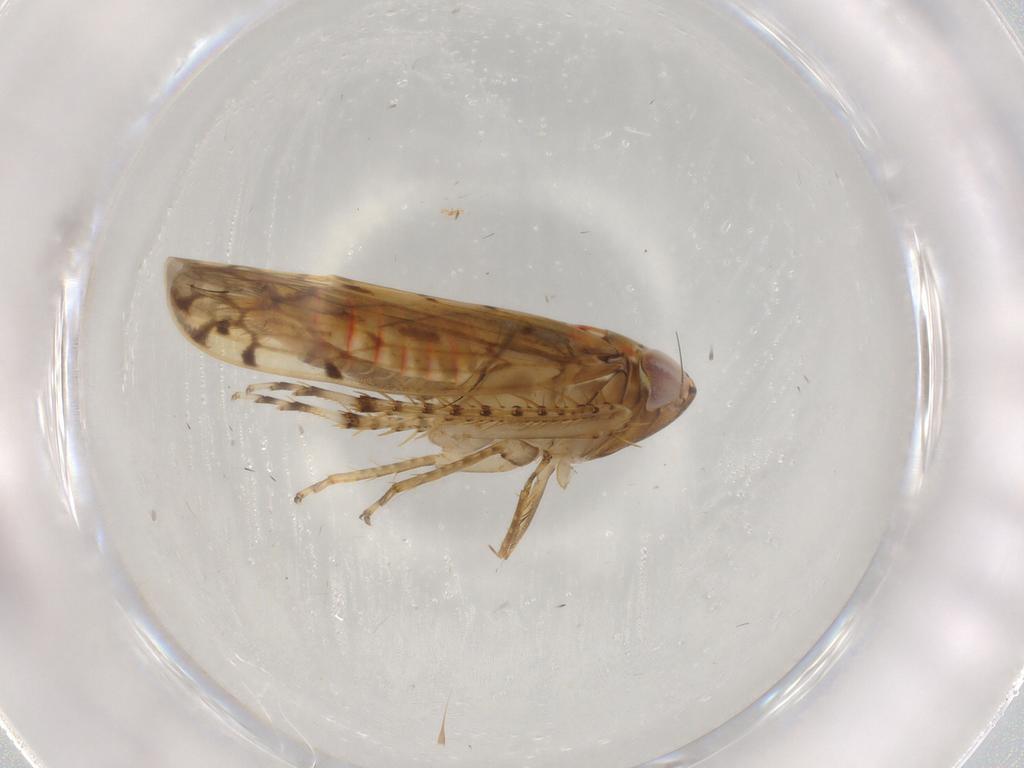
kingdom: Animalia
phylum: Arthropoda
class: Insecta
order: Hemiptera
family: Cicadellidae
